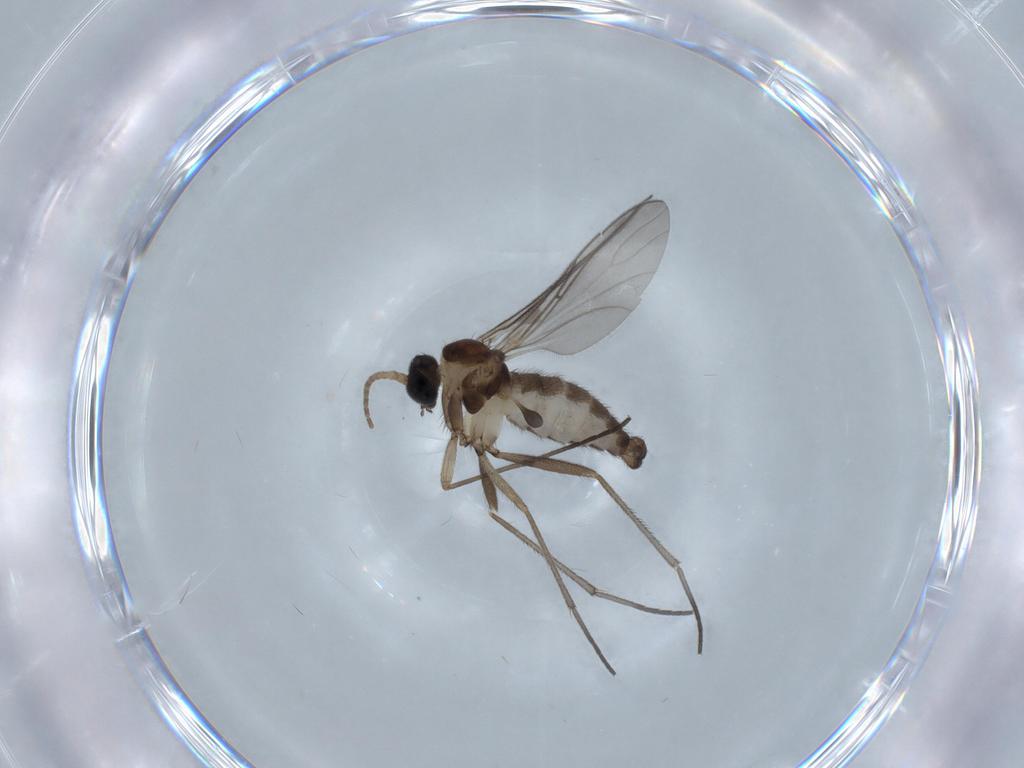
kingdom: Animalia
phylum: Arthropoda
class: Insecta
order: Diptera
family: Sciaridae
